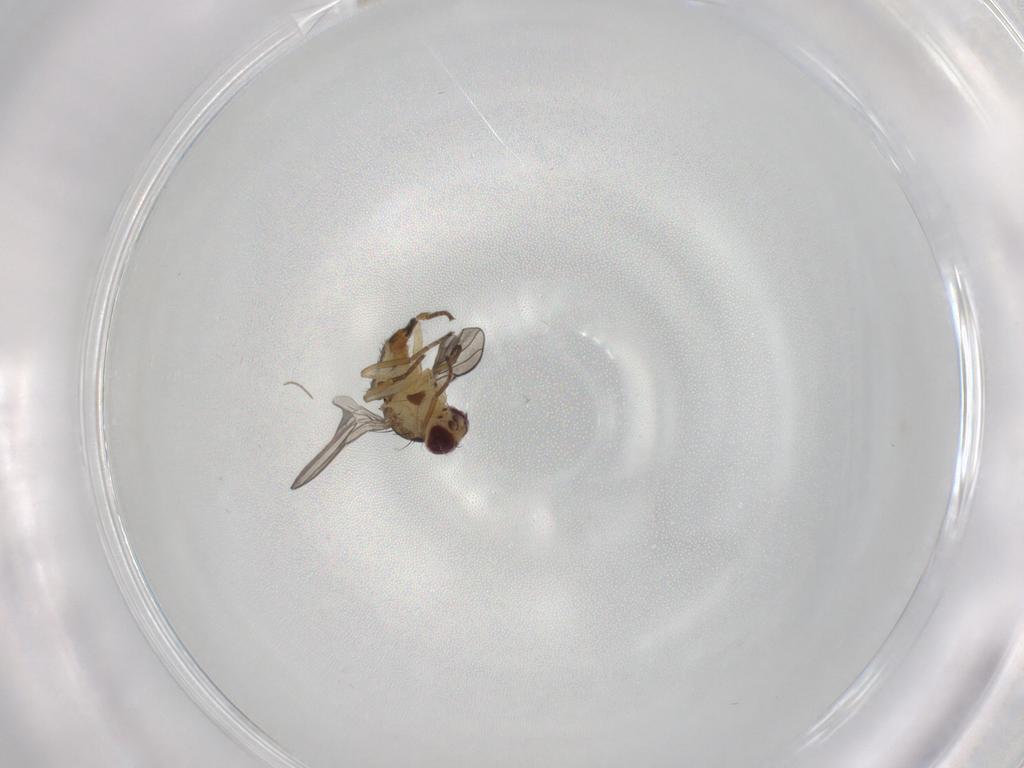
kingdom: Animalia
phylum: Arthropoda
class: Insecta
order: Diptera
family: Chironomidae
